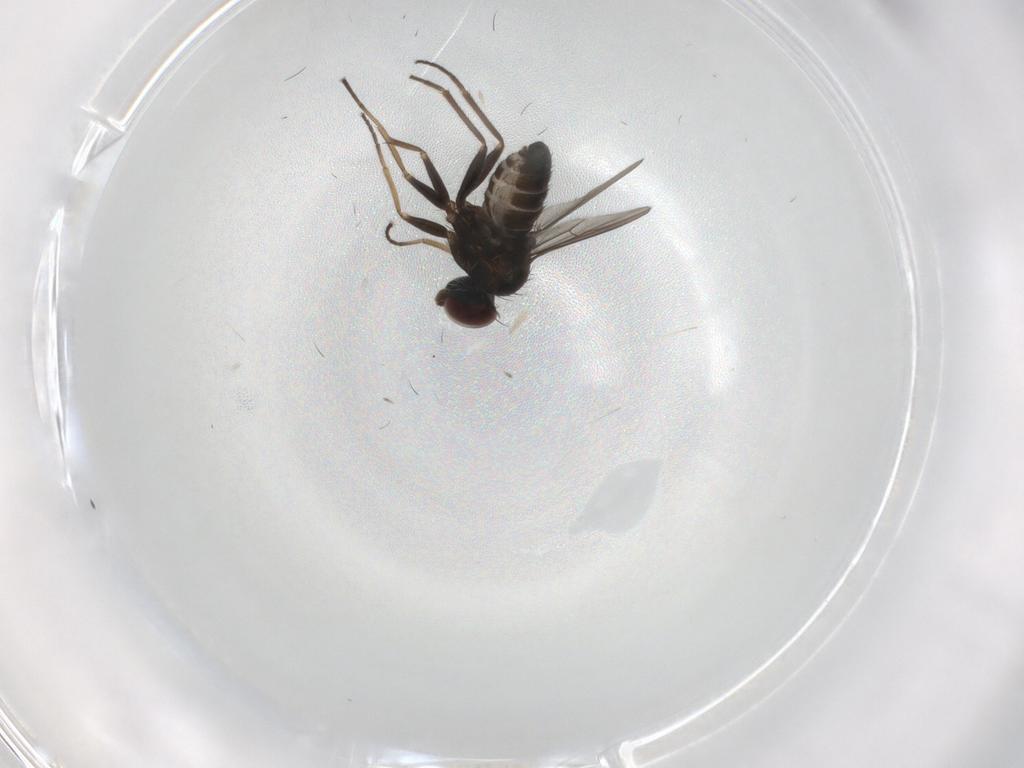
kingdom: Animalia
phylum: Arthropoda
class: Insecta
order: Diptera
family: Dolichopodidae
